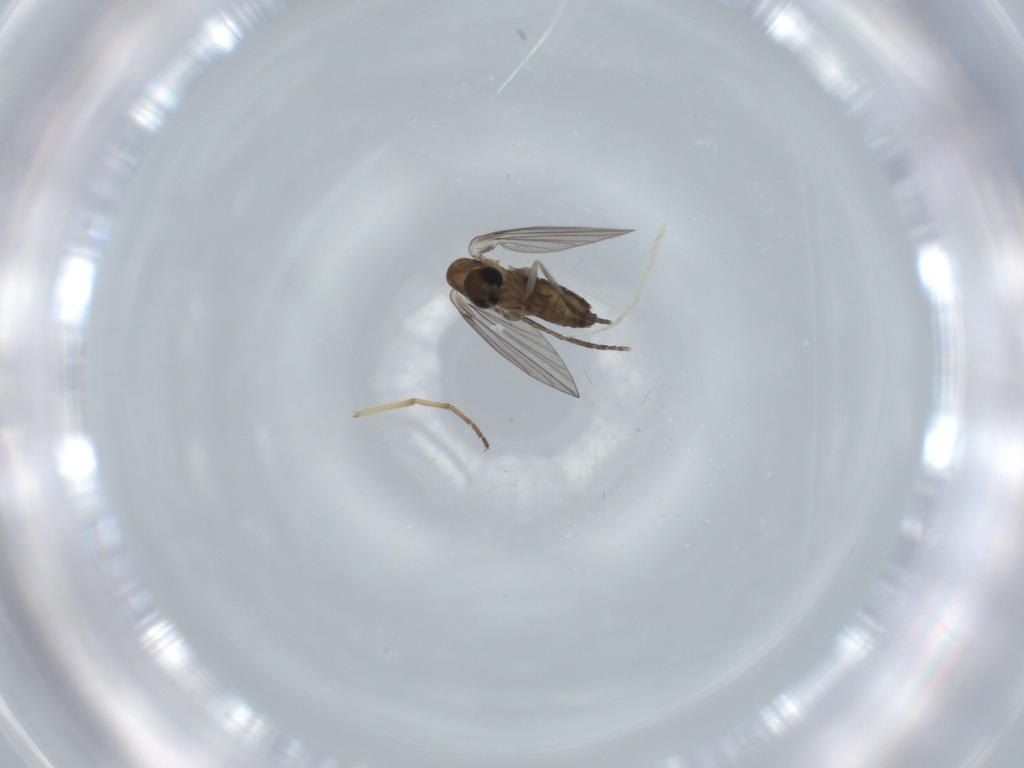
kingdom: Animalia
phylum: Arthropoda
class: Insecta
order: Diptera
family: Psychodidae
